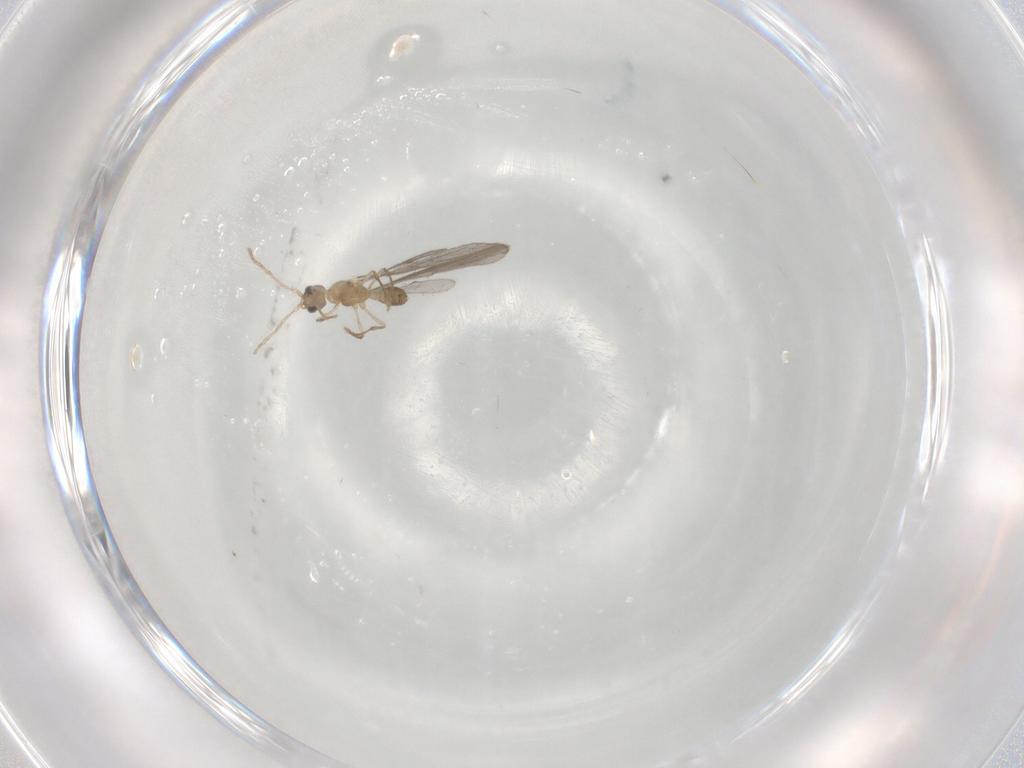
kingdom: Animalia
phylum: Arthropoda
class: Insecta
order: Hymenoptera
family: Formicidae
